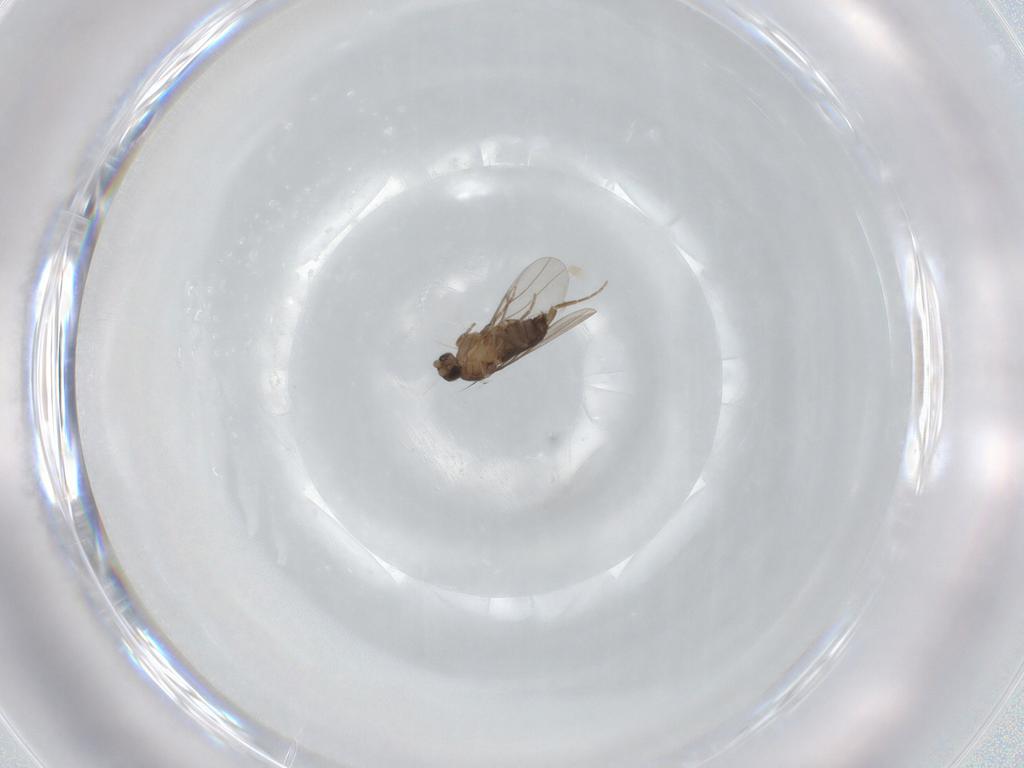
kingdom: Animalia
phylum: Arthropoda
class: Insecta
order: Diptera
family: Phoridae
